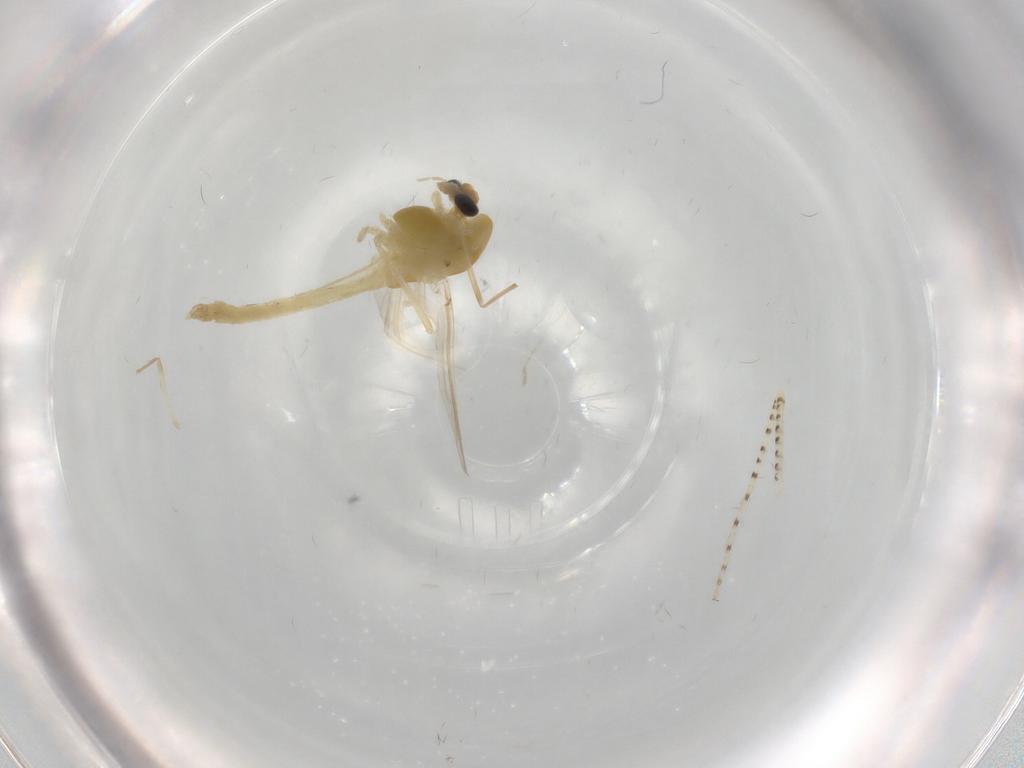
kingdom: Animalia
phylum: Arthropoda
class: Insecta
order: Diptera
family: Chironomidae
